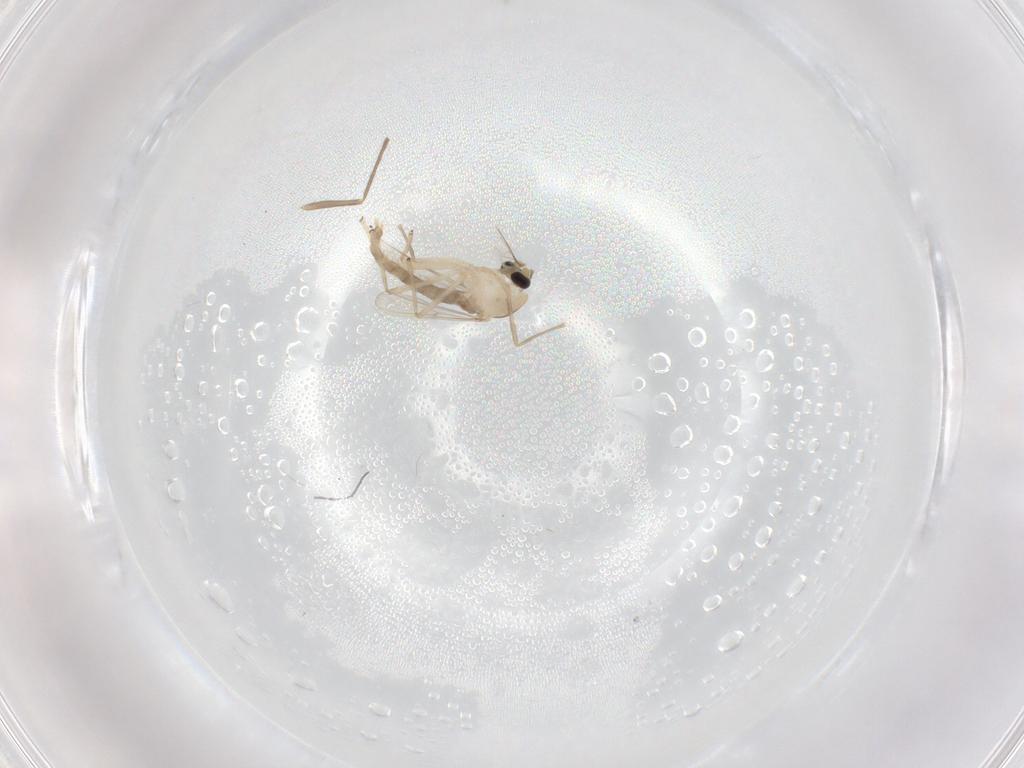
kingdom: Animalia
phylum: Arthropoda
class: Insecta
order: Diptera
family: Chironomidae
